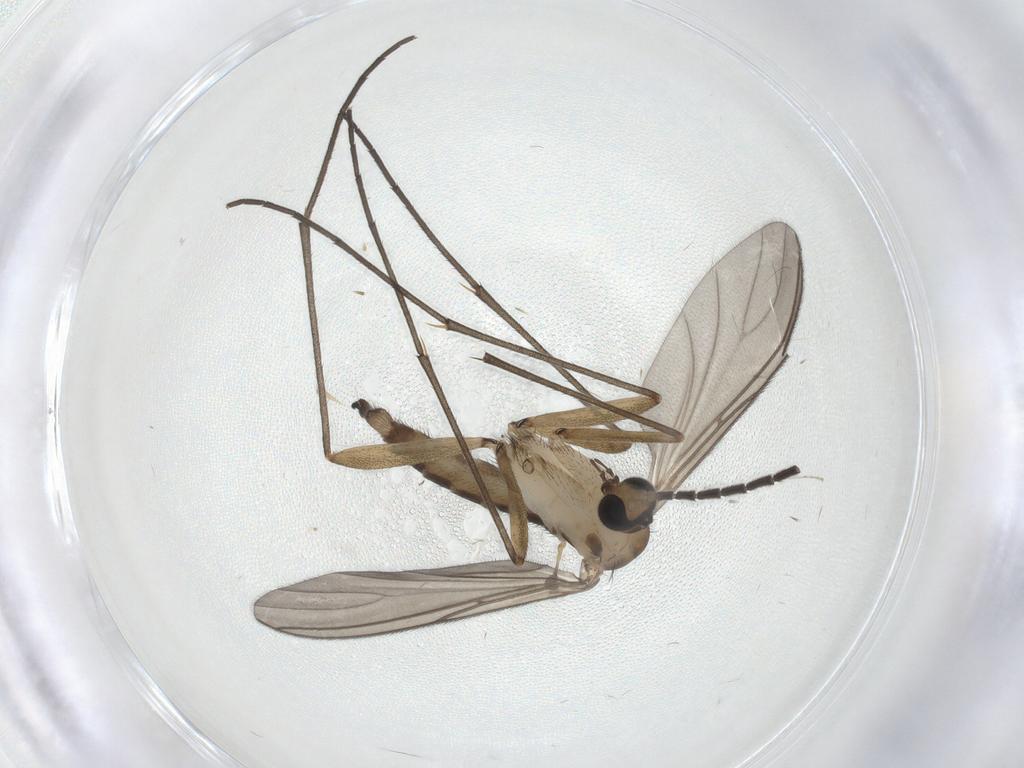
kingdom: Animalia
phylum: Arthropoda
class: Insecta
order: Diptera
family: Sciaridae
